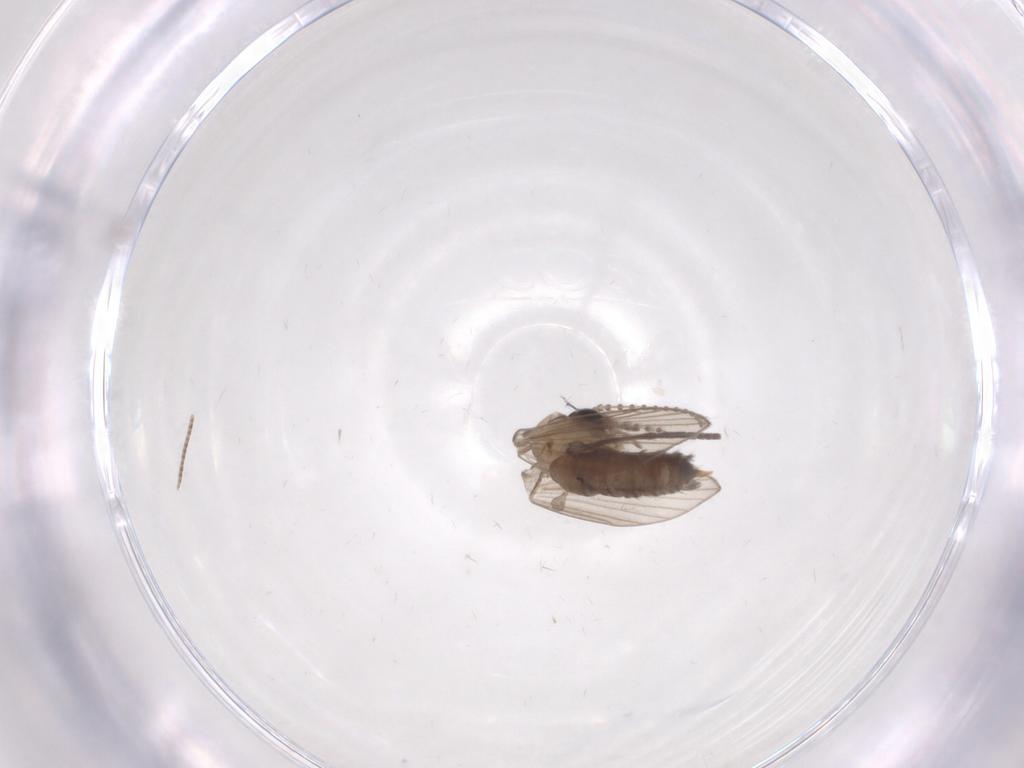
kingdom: Animalia
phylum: Arthropoda
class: Insecta
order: Diptera
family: Psychodidae
